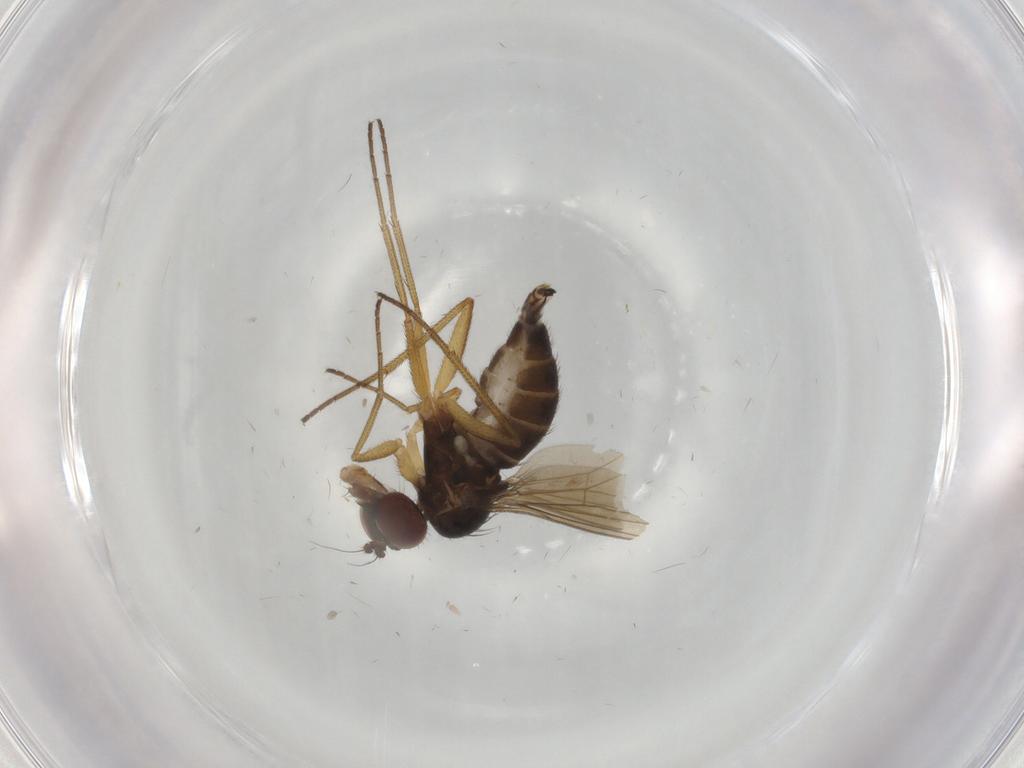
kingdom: Animalia
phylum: Arthropoda
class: Insecta
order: Diptera
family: Dolichopodidae
